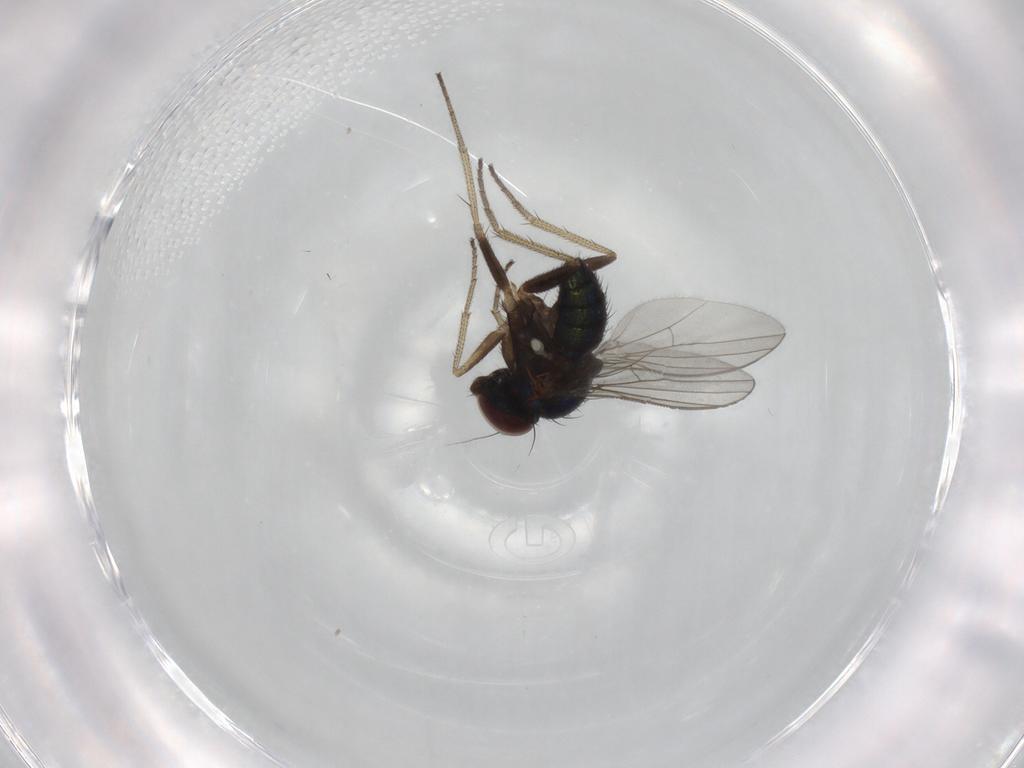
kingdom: Animalia
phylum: Arthropoda
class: Insecta
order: Diptera
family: Dolichopodidae
